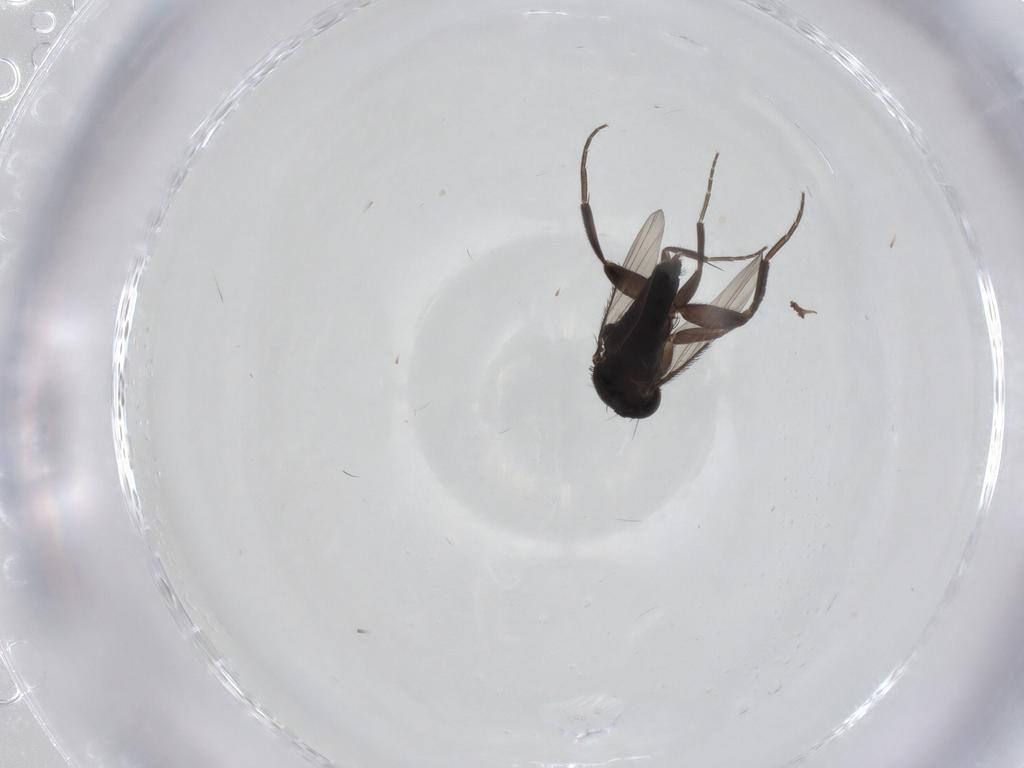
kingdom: Animalia
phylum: Arthropoda
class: Insecta
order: Diptera
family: Phoridae
